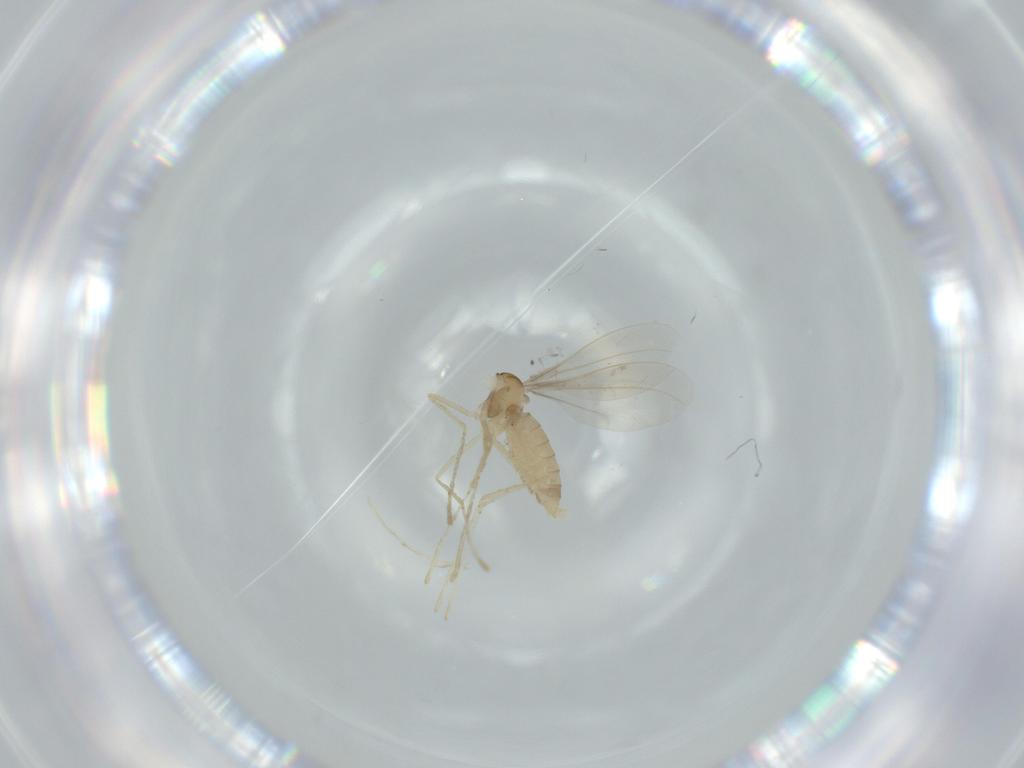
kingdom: Animalia
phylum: Arthropoda
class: Insecta
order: Diptera
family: Cecidomyiidae
